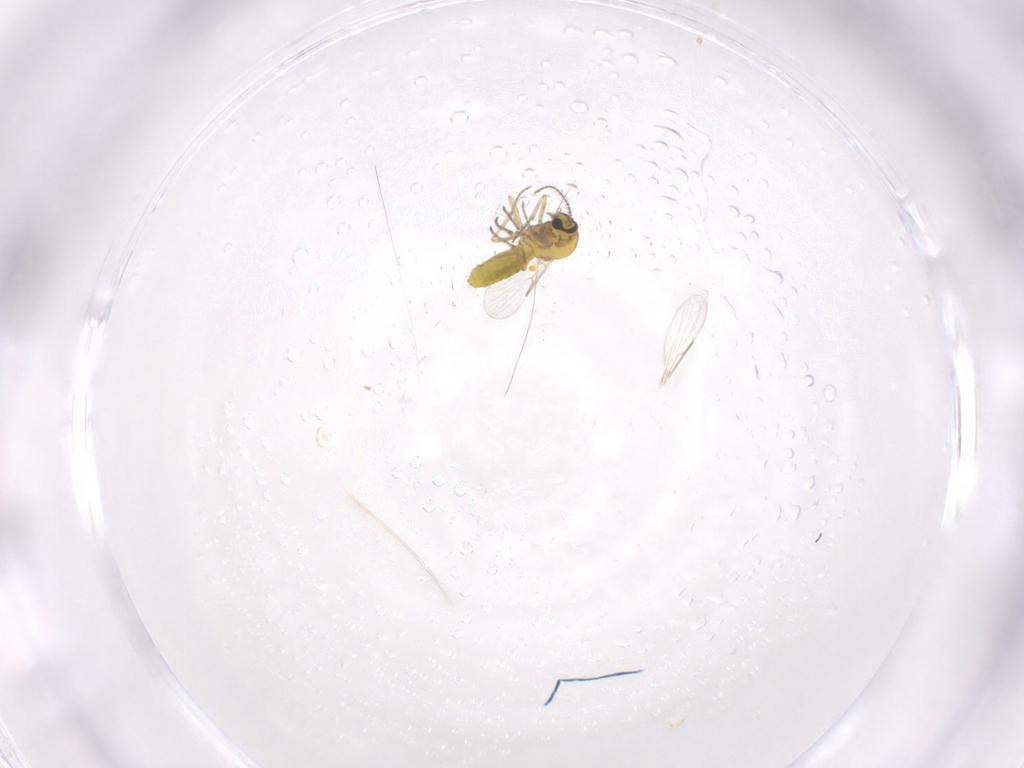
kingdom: Animalia
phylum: Arthropoda
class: Insecta
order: Diptera
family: Ceratopogonidae
